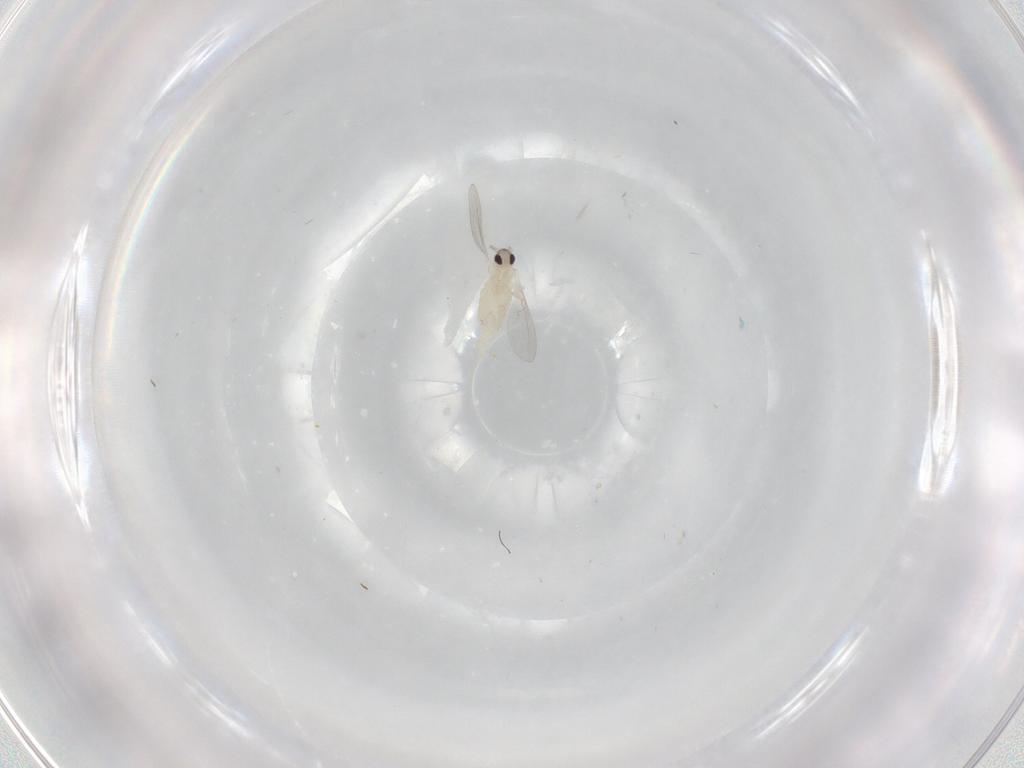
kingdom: Animalia
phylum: Arthropoda
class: Insecta
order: Diptera
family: Cecidomyiidae
